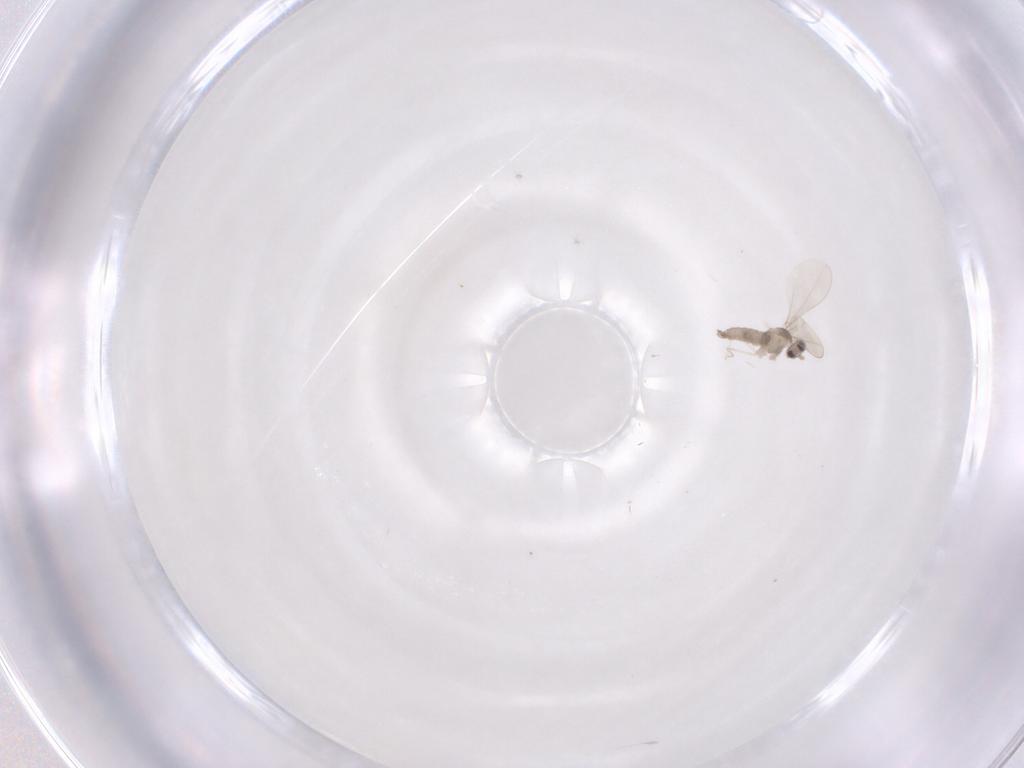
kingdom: Animalia
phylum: Arthropoda
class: Insecta
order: Diptera
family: Cecidomyiidae
